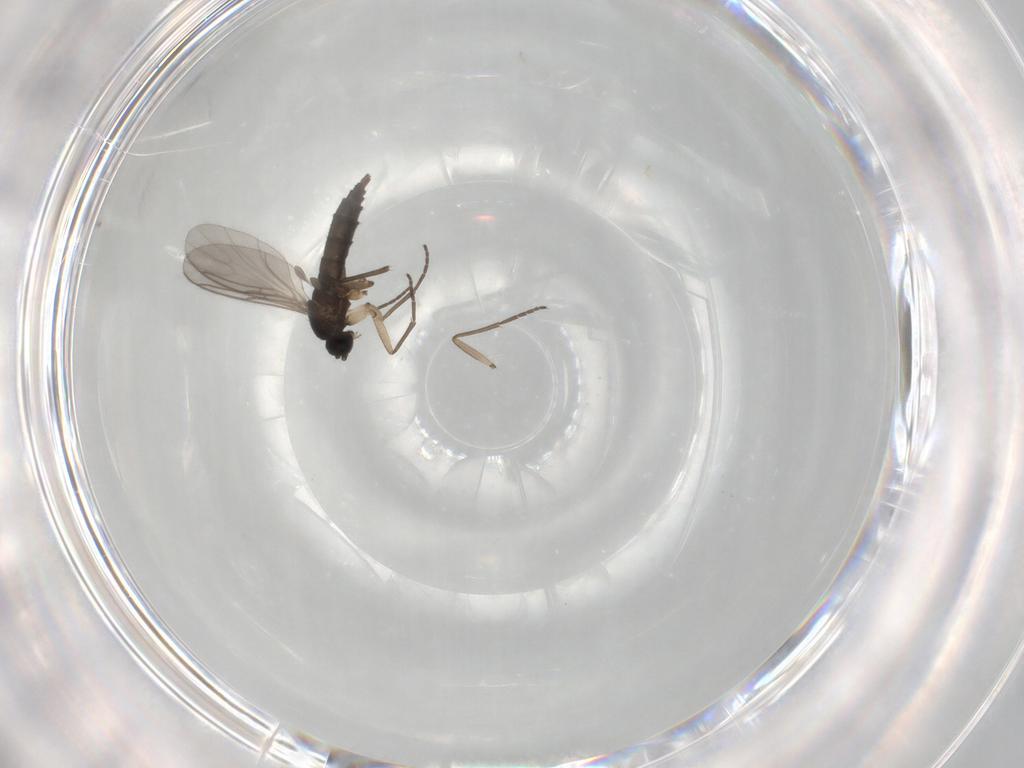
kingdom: Animalia
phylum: Arthropoda
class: Insecta
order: Diptera
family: Sciaridae
